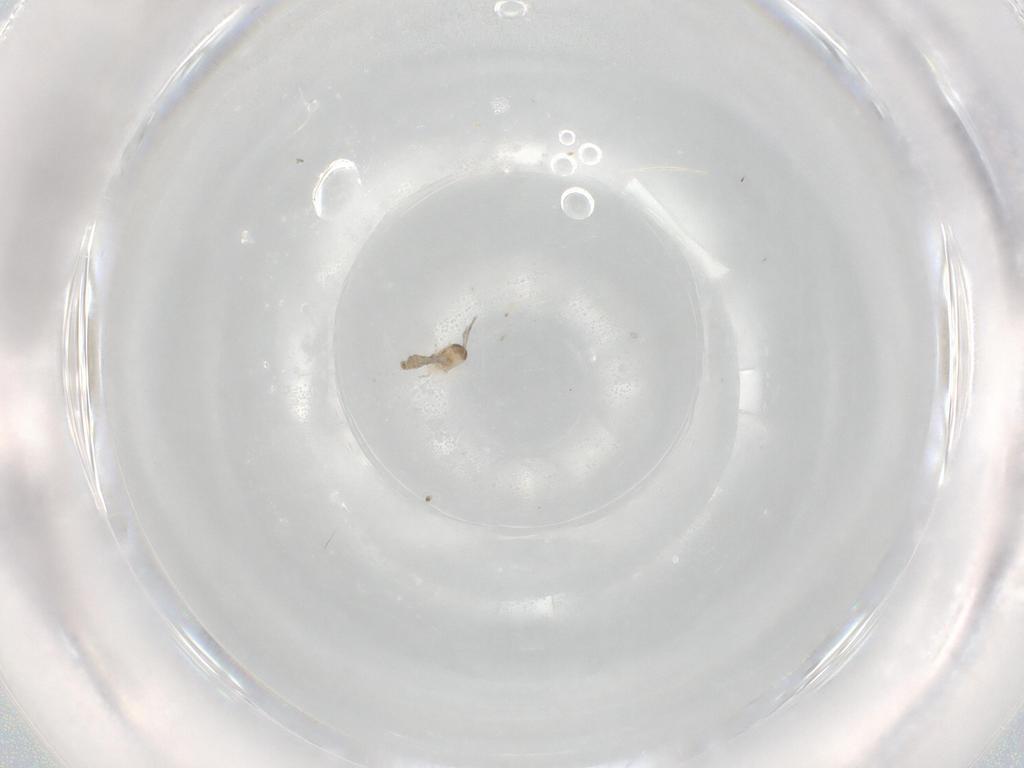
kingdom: Animalia
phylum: Arthropoda
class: Insecta
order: Diptera
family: Cecidomyiidae
